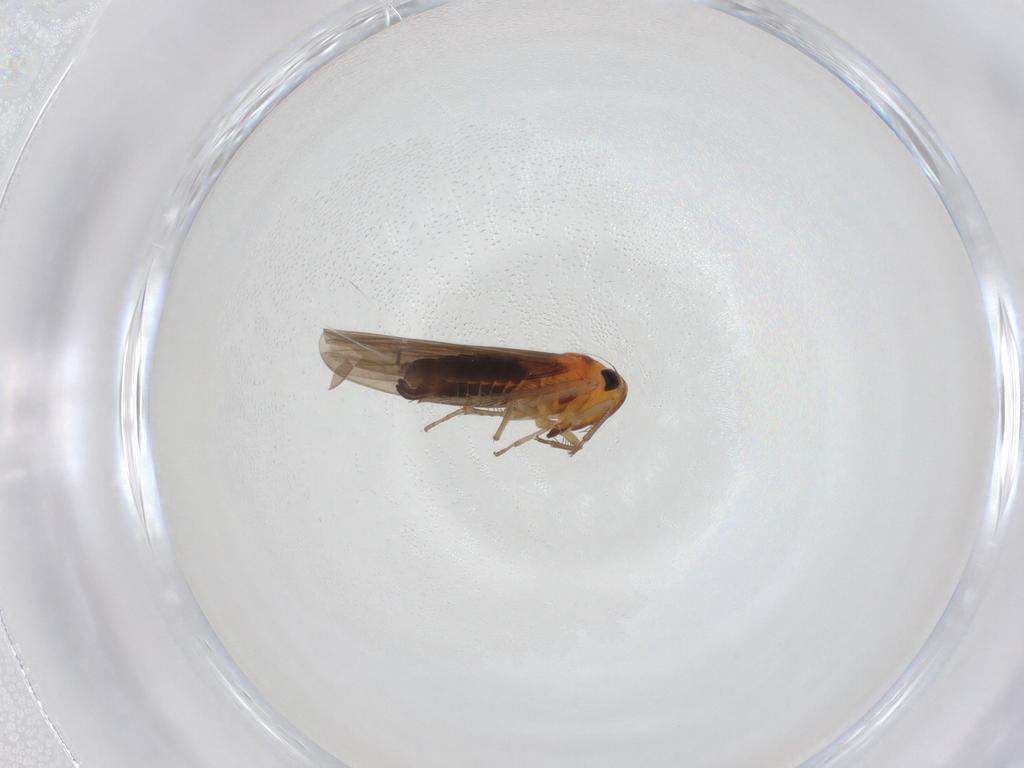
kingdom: Animalia
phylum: Arthropoda
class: Insecta
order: Hemiptera
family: Cicadellidae
